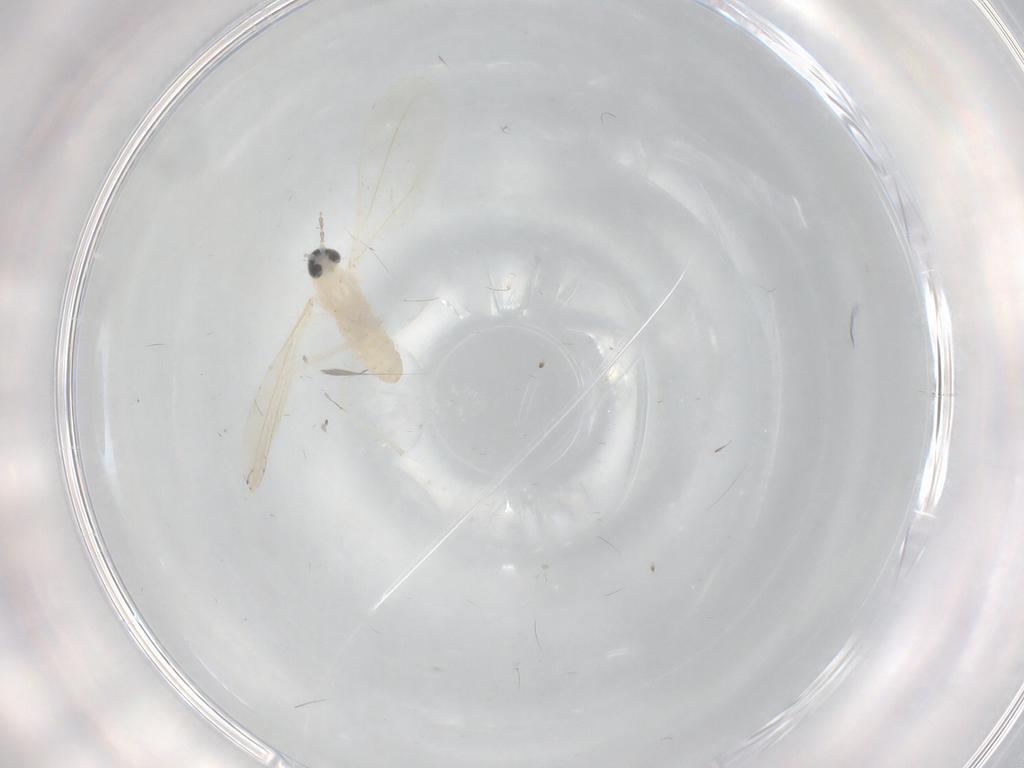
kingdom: Animalia
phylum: Arthropoda
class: Insecta
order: Diptera
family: Cecidomyiidae
